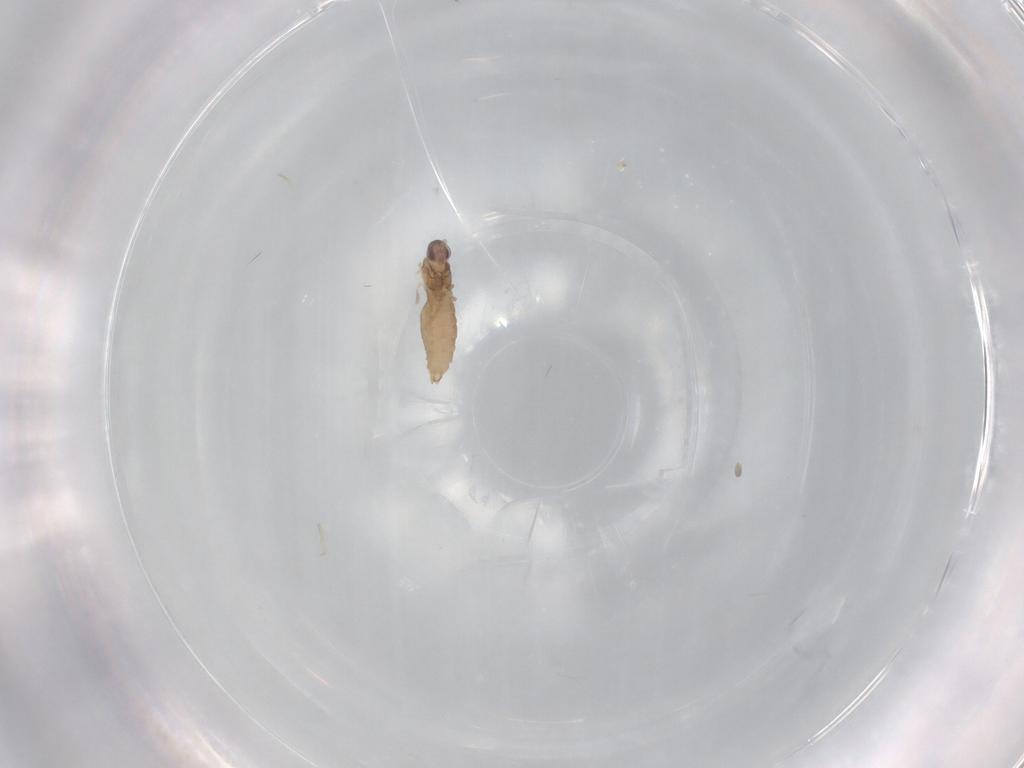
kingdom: Animalia
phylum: Arthropoda
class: Insecta
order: Diptera
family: Cecidomyiidae
